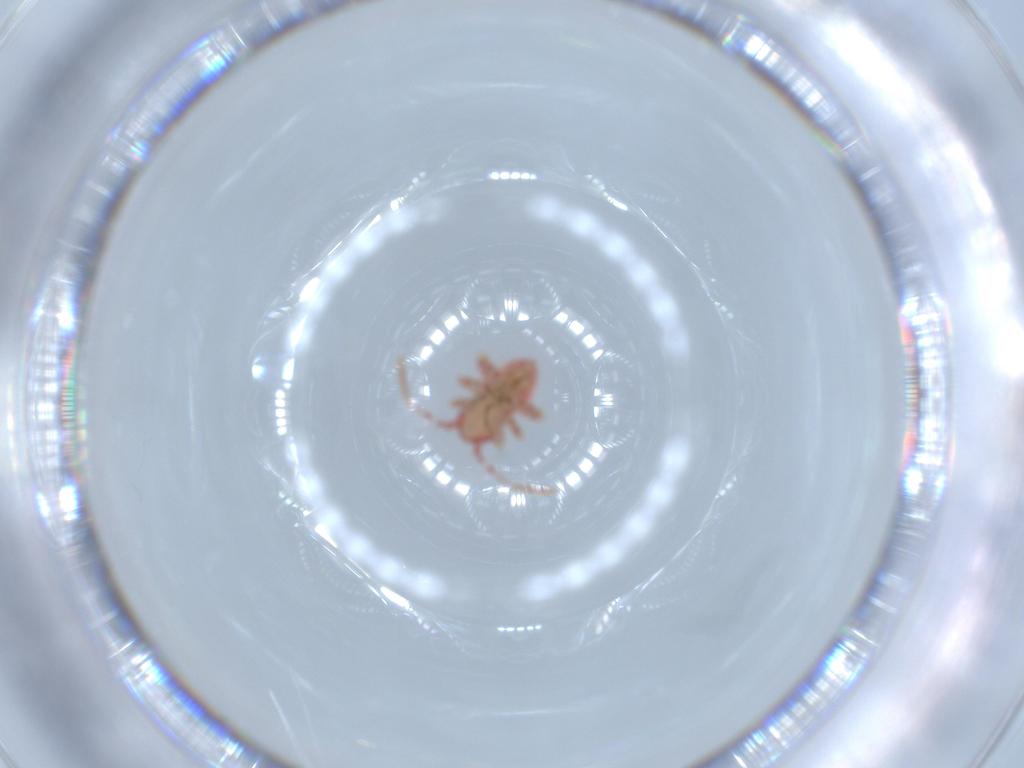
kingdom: Animalia
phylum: Arthropoda
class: Insecta
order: Hemiptera
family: Miridae
